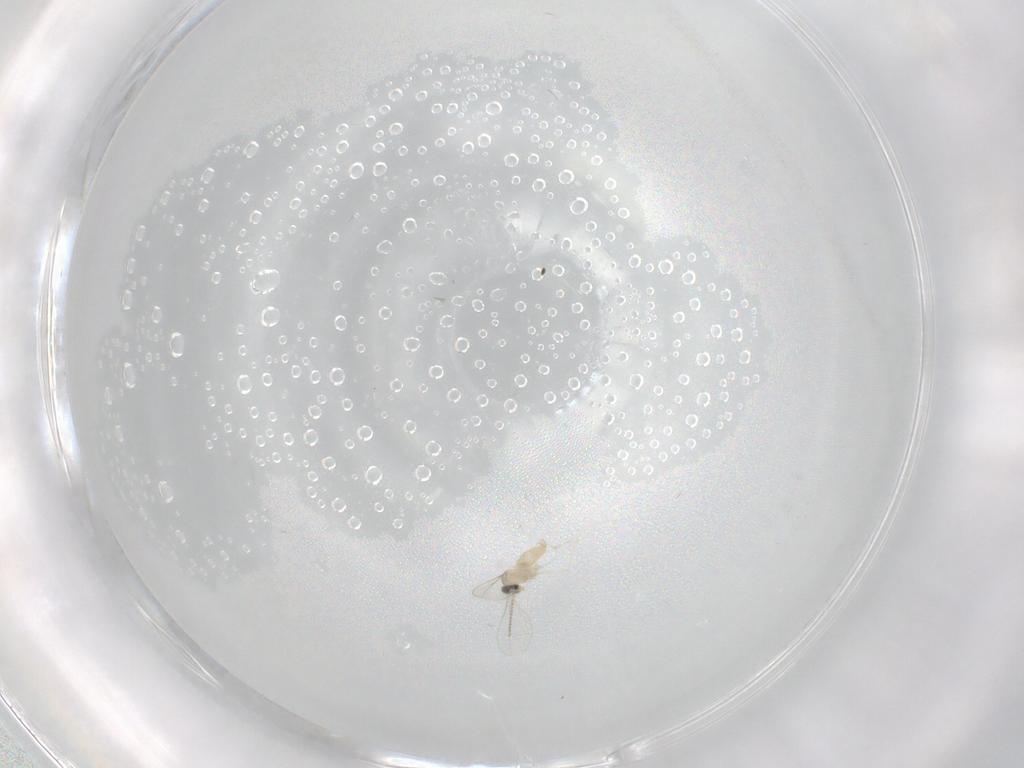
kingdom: Animalia
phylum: Arthropoda
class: Insecta
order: Diptera
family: Cecidomyiidae
